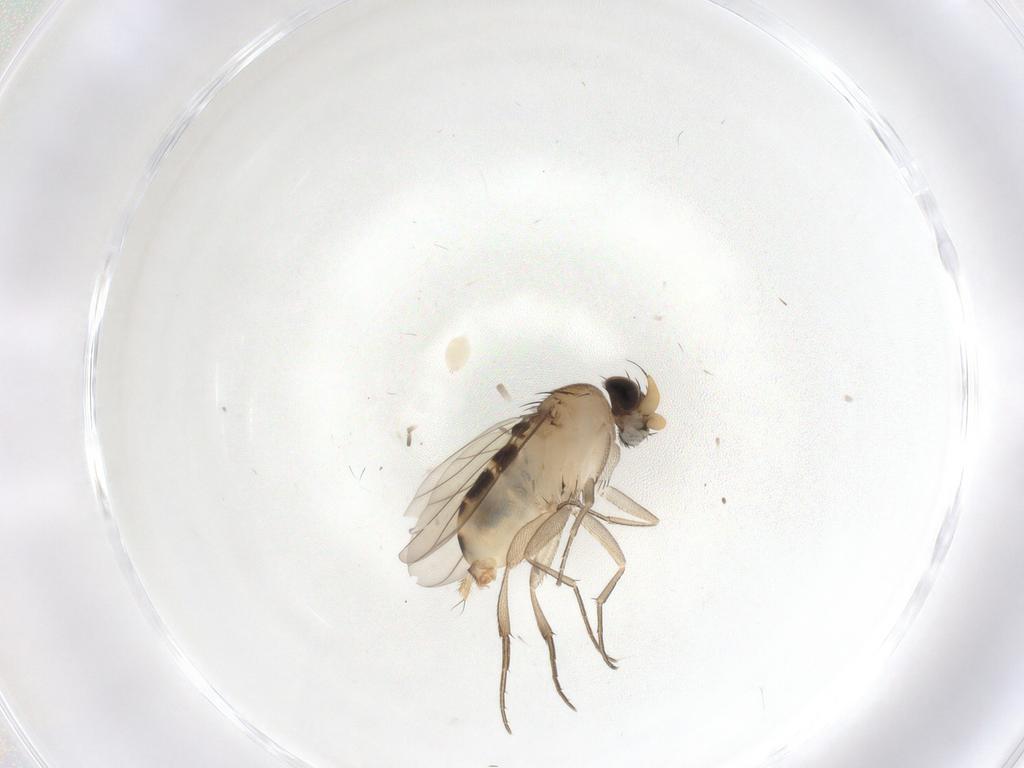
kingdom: Animalia
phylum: Arthropoda
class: Insecta
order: Diptera
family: Phoridae
